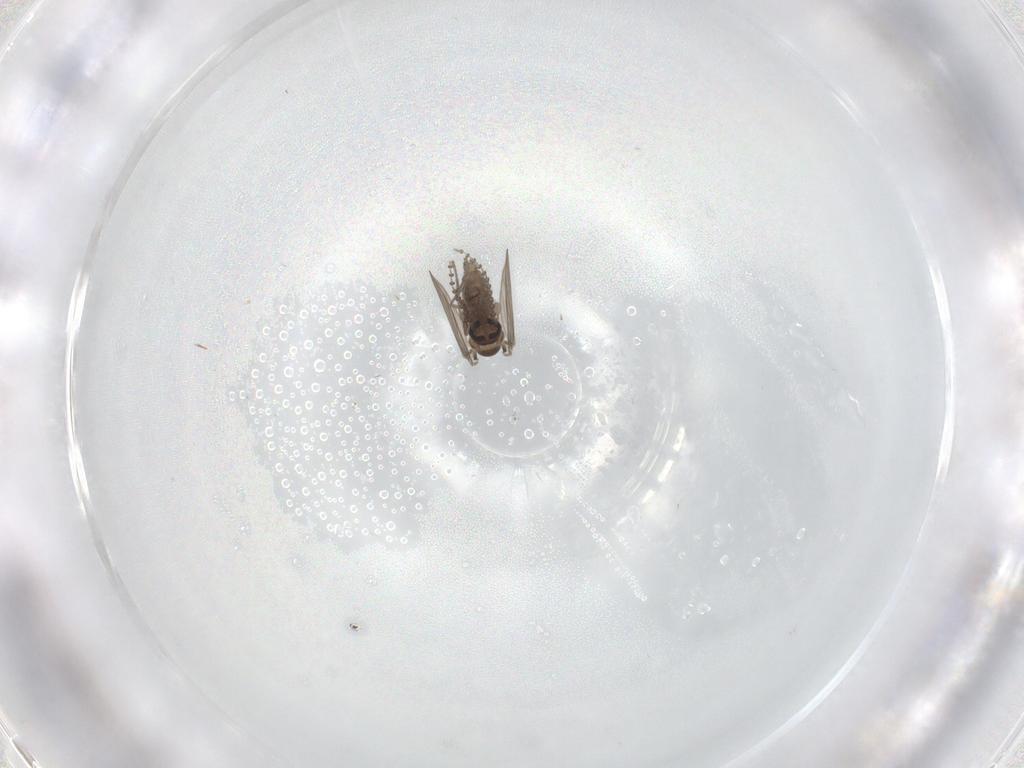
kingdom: Animalia
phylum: Arthropoda
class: Insecta
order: Diptera
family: Psychodidae
